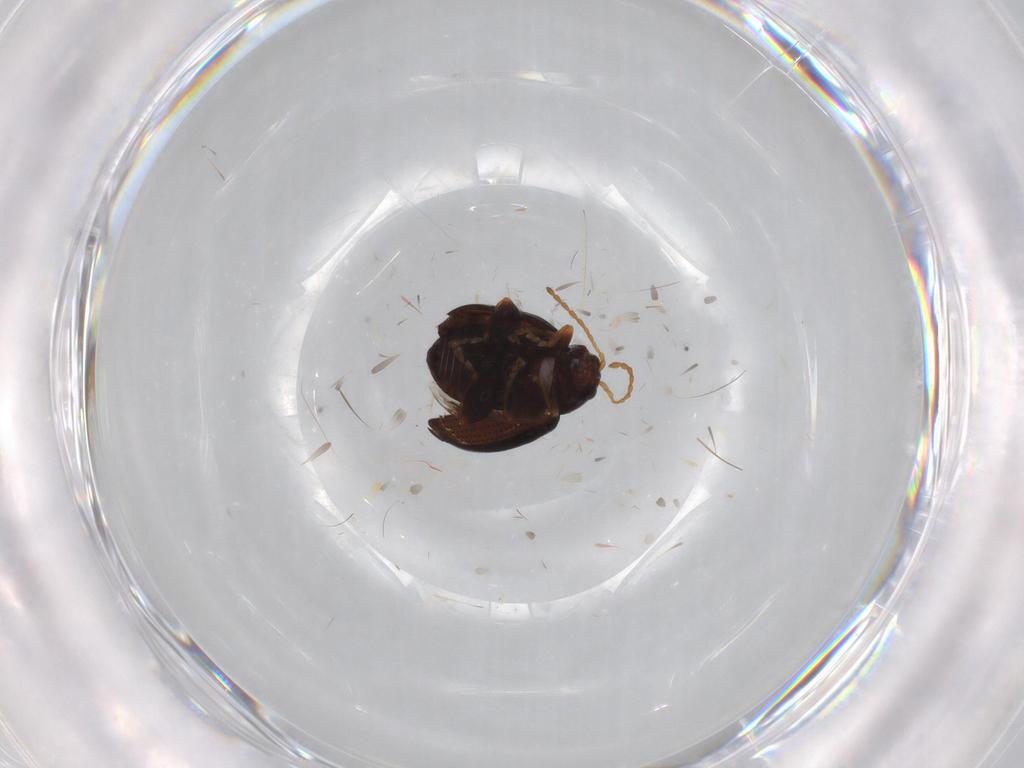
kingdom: Animalia
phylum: Arthropoda
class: Insecta
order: Coleoptera
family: Chrysomelidae
